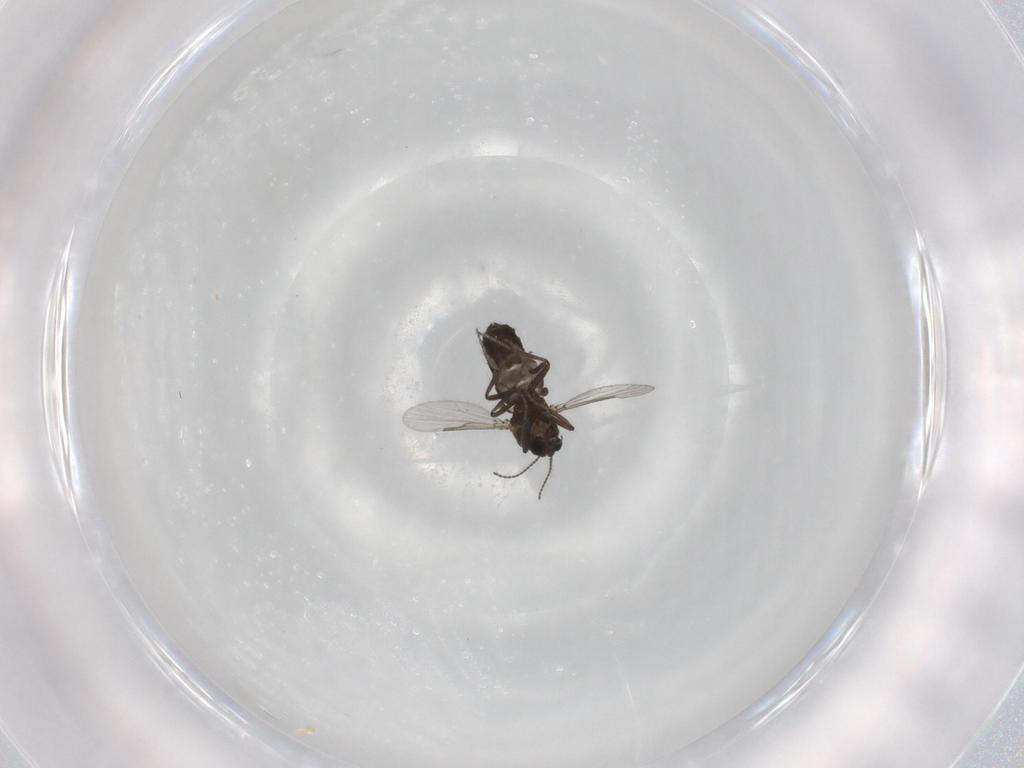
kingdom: Animalia
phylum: Arthropoda
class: Insecta
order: Diptera
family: Ceratopogonidae
